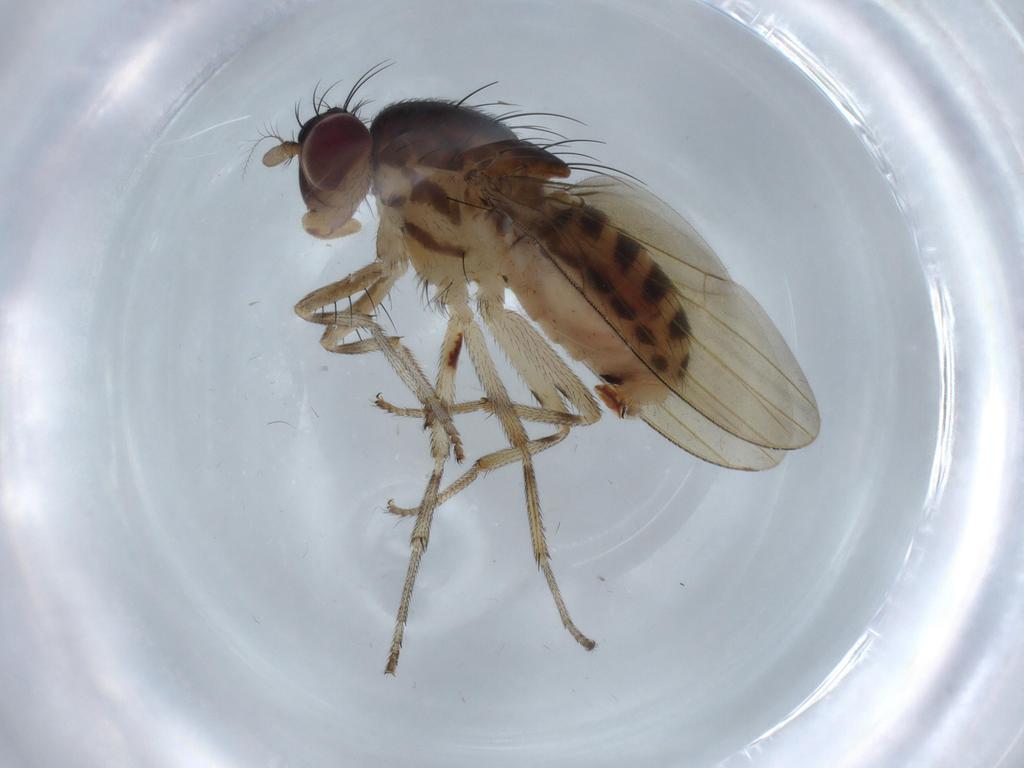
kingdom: Animalia
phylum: Arthropoda
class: Insecta
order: Diptera
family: Lauxaniidae
